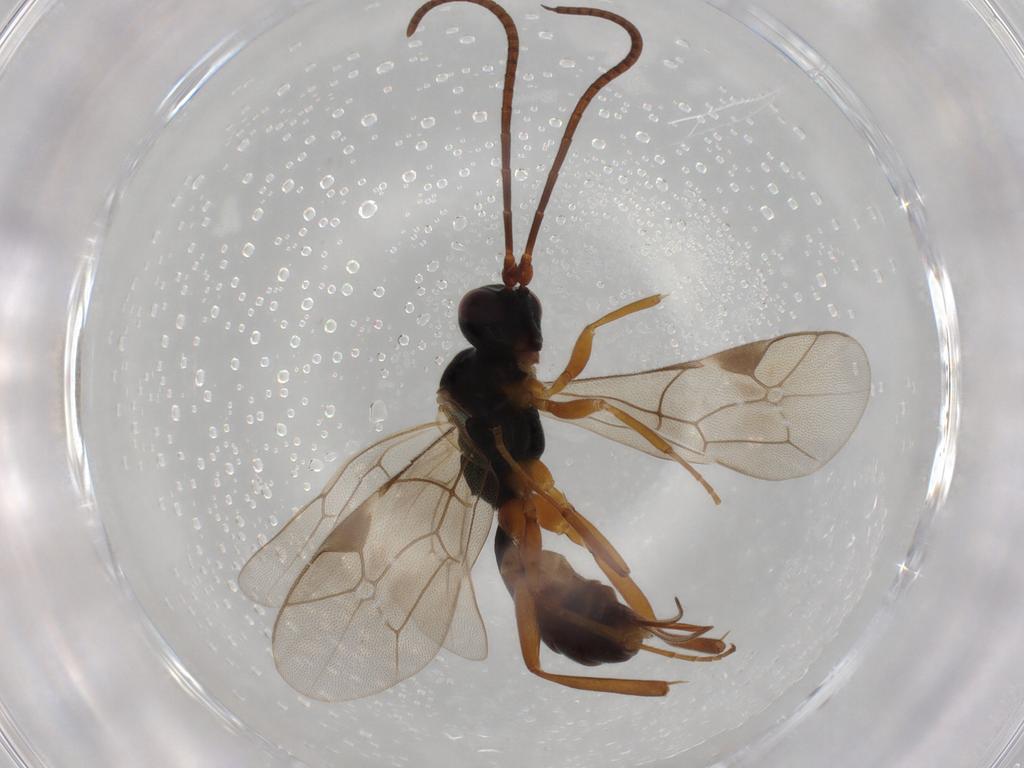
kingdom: Animalia
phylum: Arthropoda
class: Insecta
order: Hymenoptera
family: Ichneumonidae
